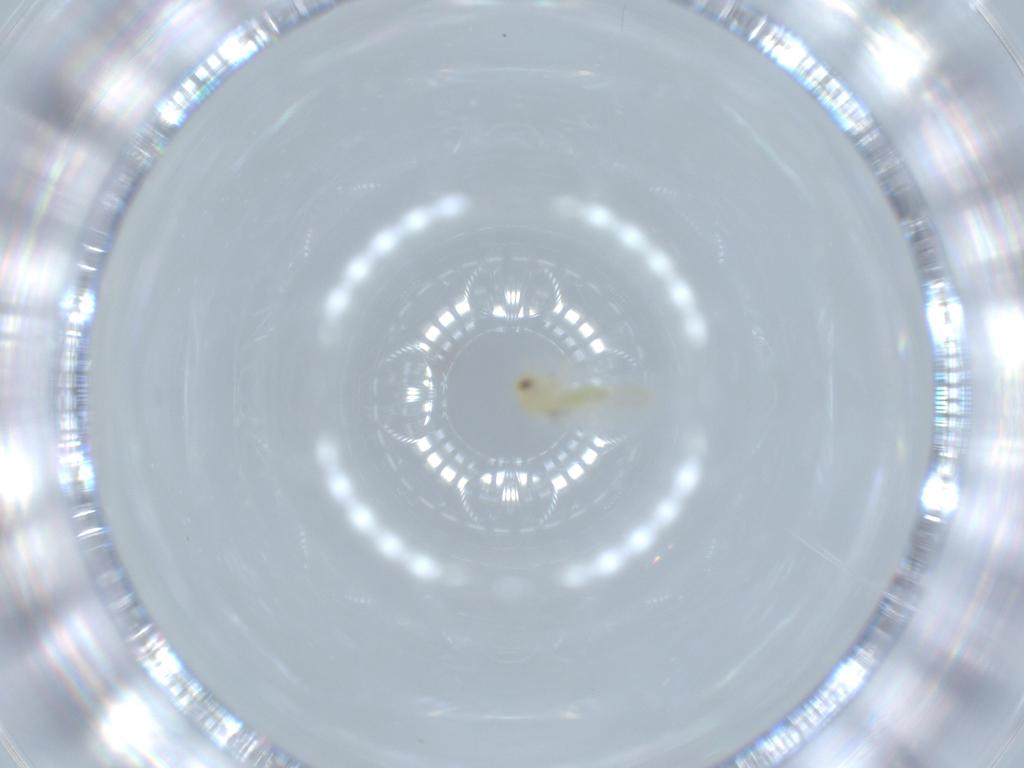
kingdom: Animalia
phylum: Arthropoda
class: Insecta
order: Hemiptera
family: Aleyrodidae
